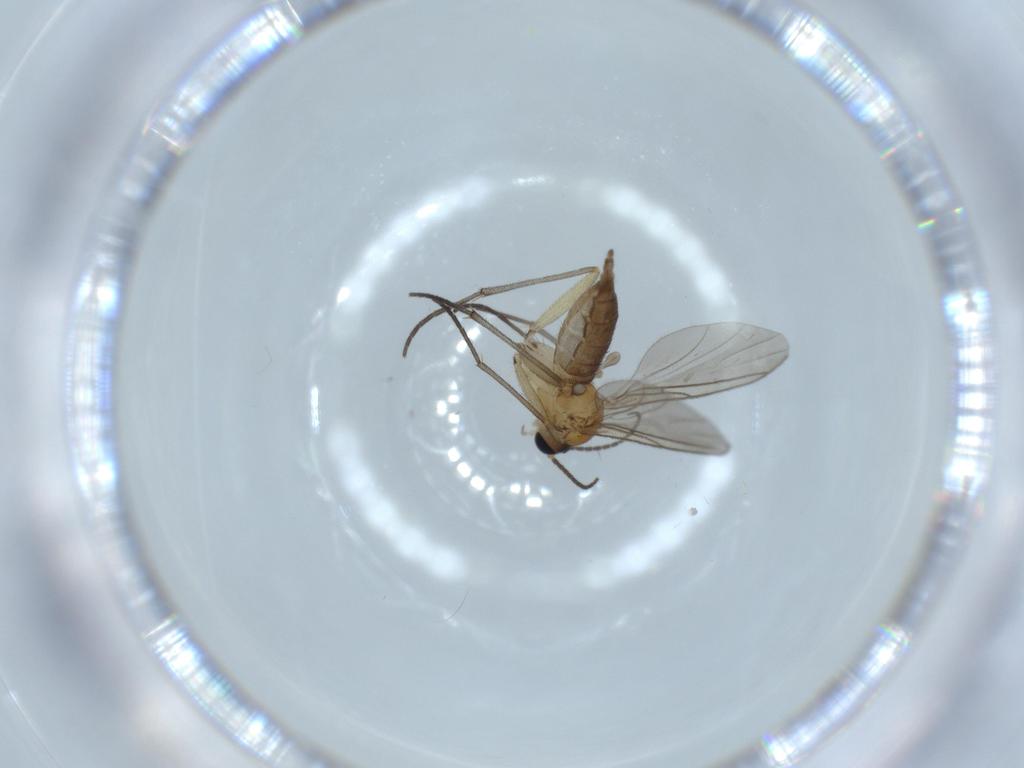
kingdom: Animalia
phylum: Arthropoda
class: Insecta
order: Diptera
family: Sciaridae
